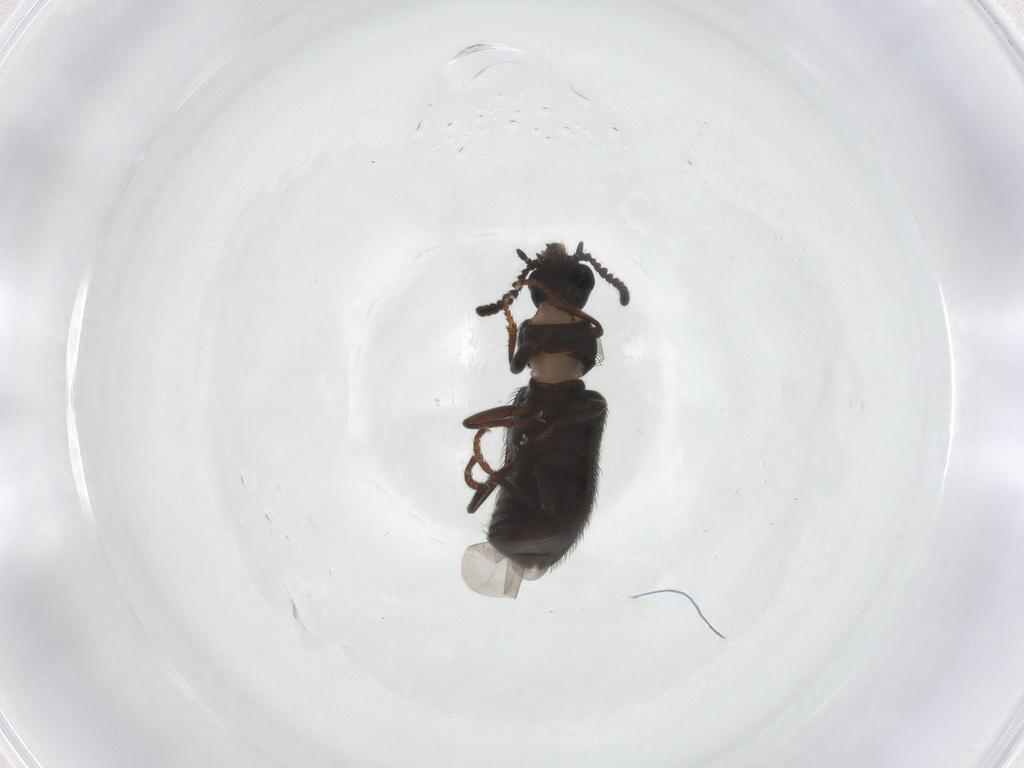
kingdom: Animalia
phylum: Arthropoda
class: Insecta
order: Coleoptera
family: Melyridae
